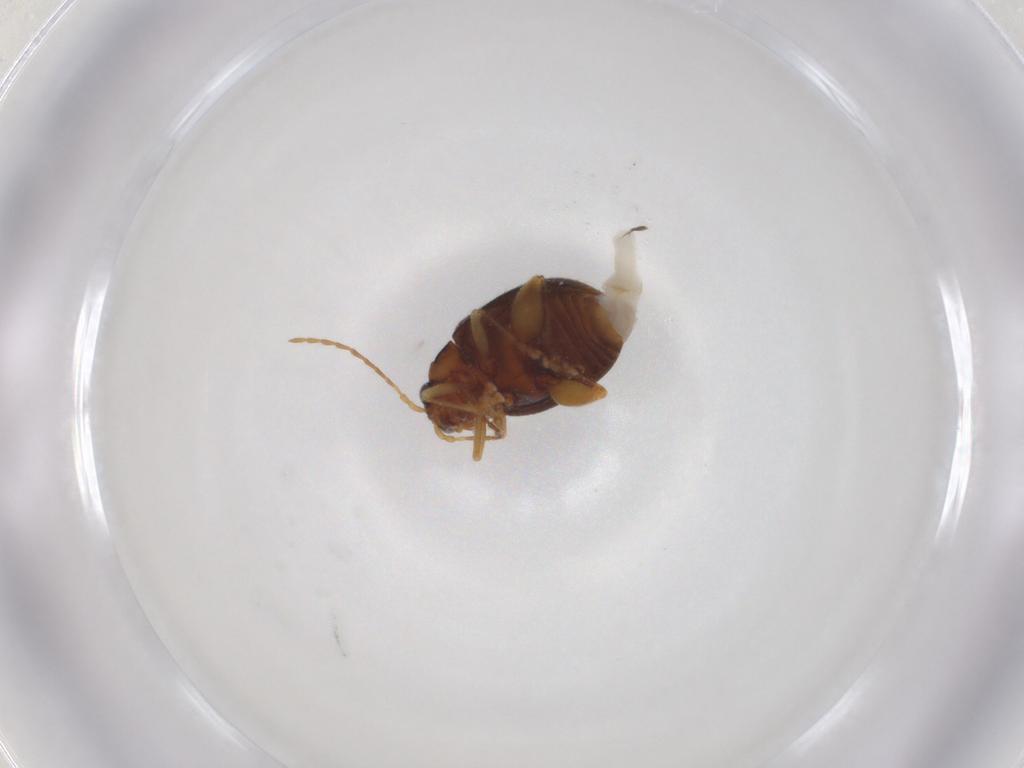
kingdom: Animalia
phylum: Arthropoda
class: Insecta
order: Coleoptera
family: Chrysomelidae
